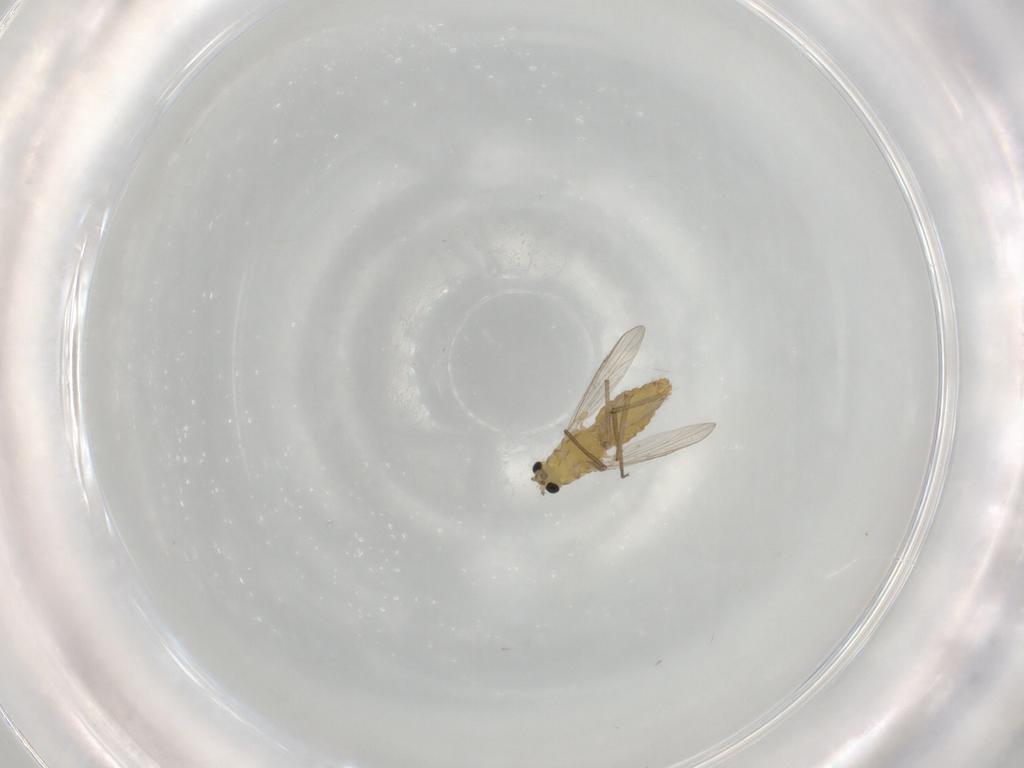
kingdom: Animalia
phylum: Arthropoda
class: Insecta
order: Diptera
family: Chironomidae
